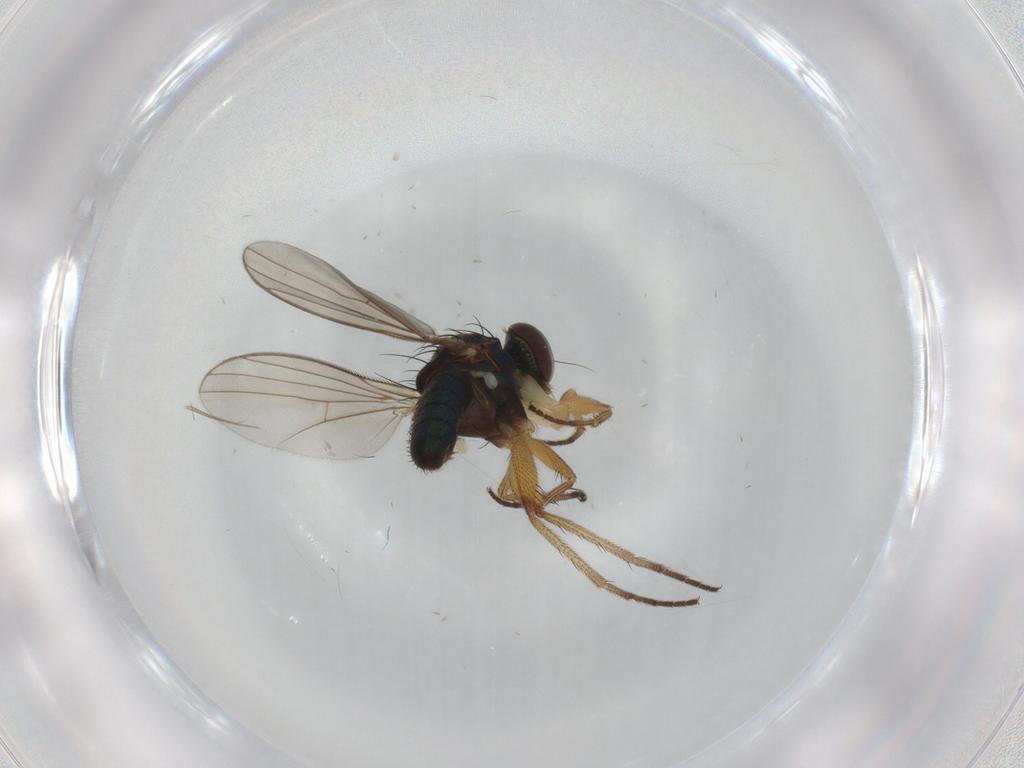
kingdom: Animalia
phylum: Arthropoda
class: Insecta
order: Diptera
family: Dolichopodidae
